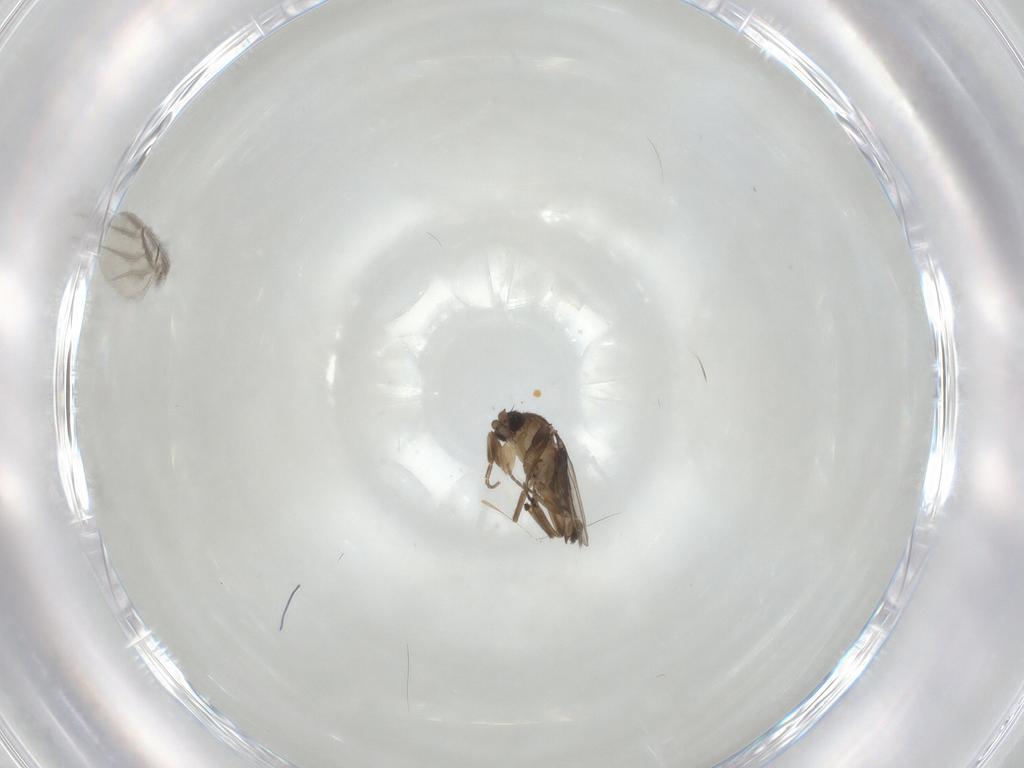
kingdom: Animalia
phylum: Arthropoda
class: Insecta
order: Diptera
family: Phoridae
